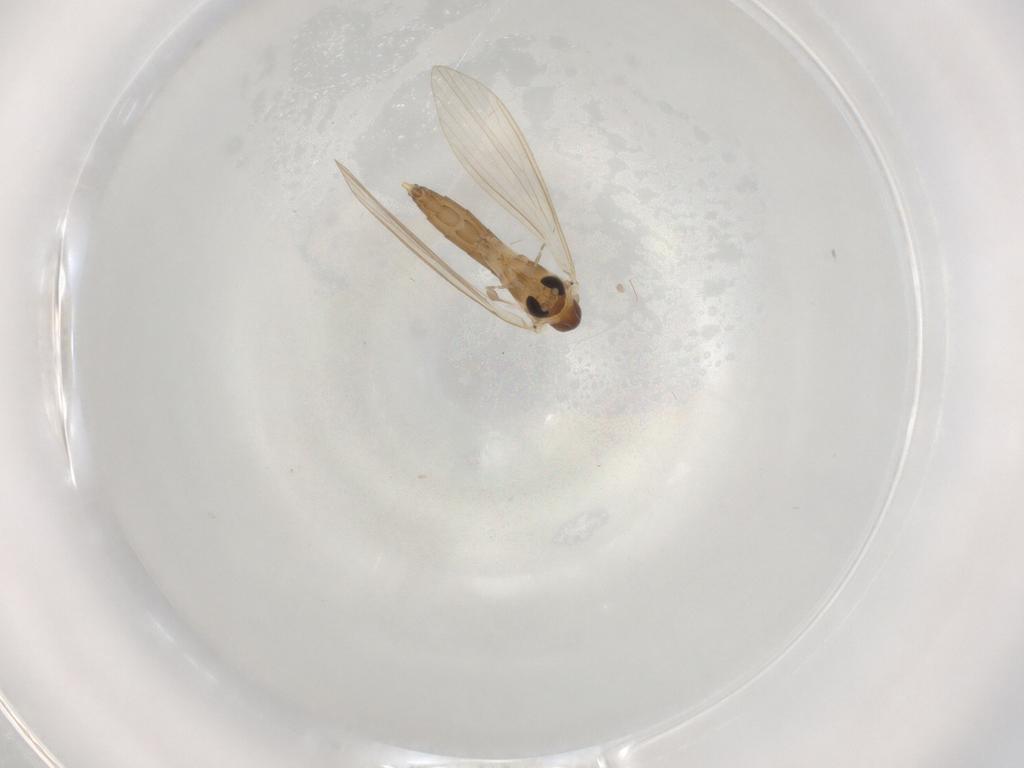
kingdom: Animalia
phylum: Arthropoda
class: Insecta
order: Diptera
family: Psychodidae
